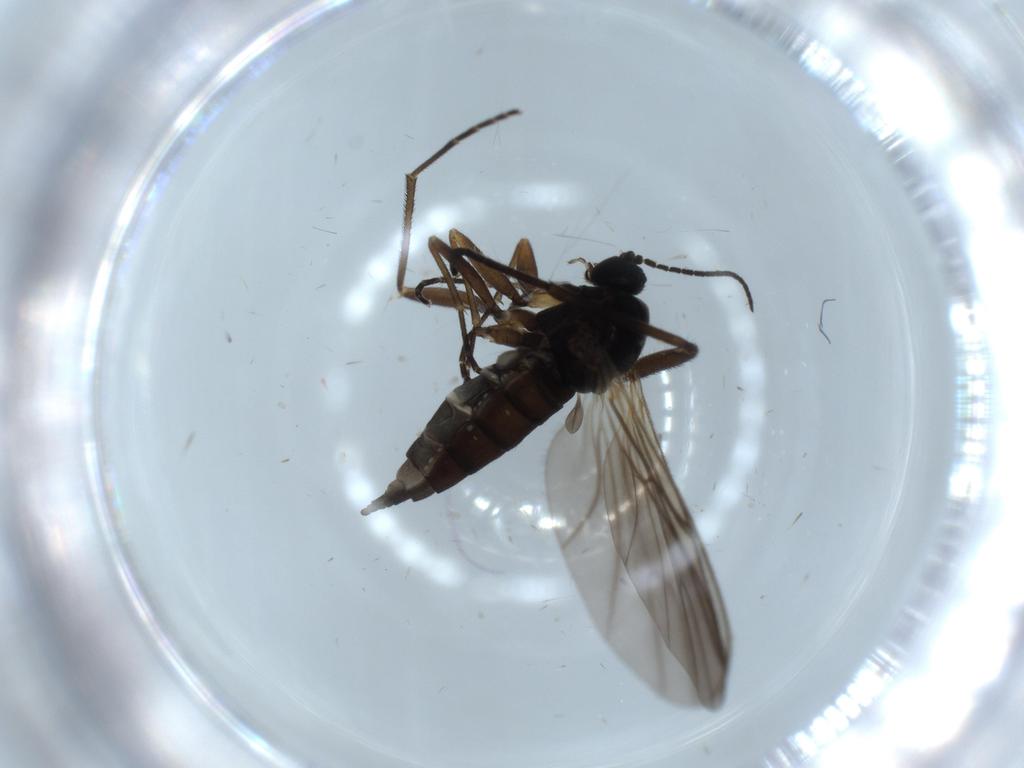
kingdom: Animalia
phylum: Arthropoda
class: Insecta
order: Diptera
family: Sciaridae
